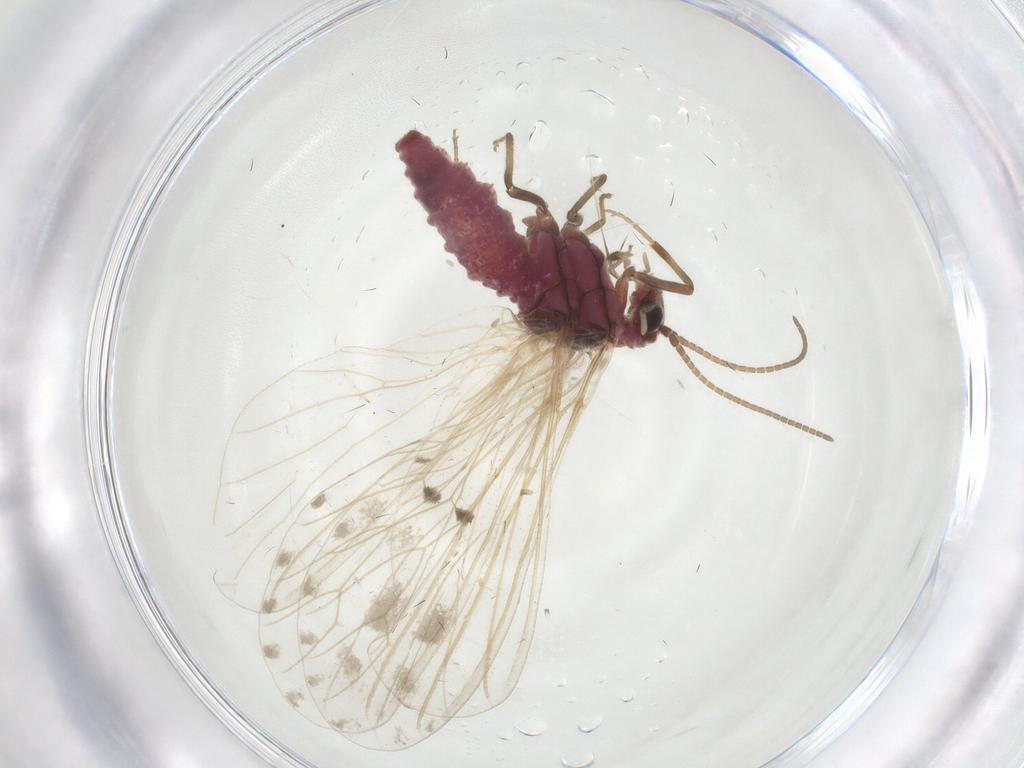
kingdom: Animalia
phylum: Arthropoda
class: Insecta
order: Neuroptera
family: Coniopterygidae
